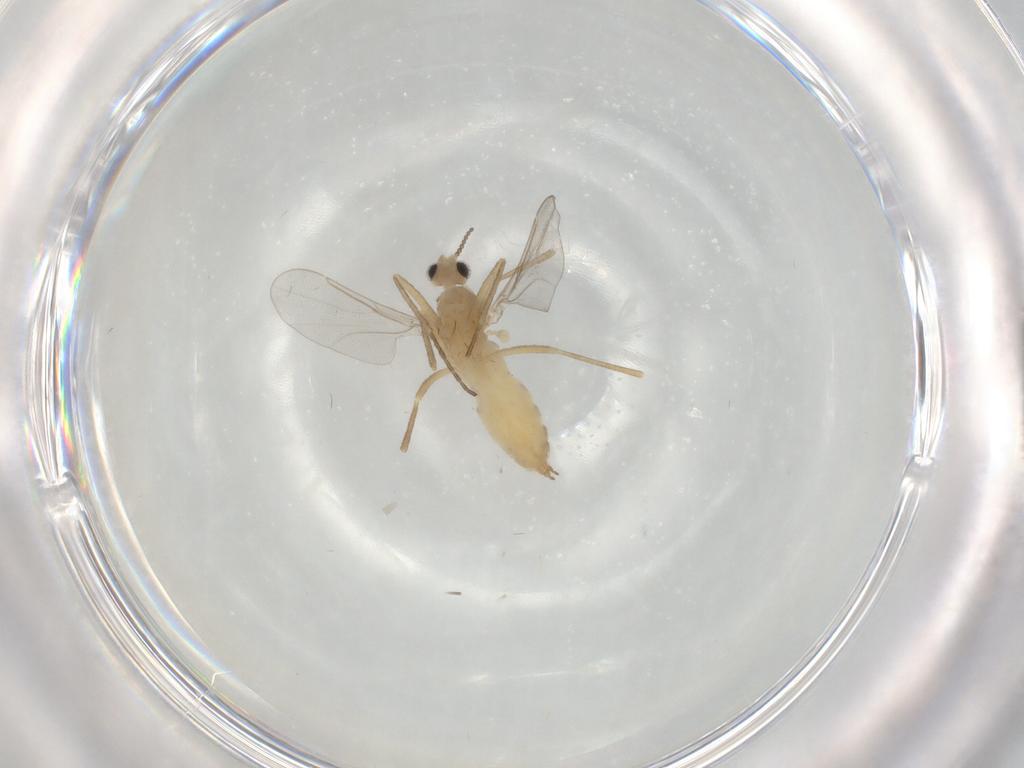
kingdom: Animalia
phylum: Arthropoda
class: Insecta
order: Diptera
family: Cecidomyiidae
